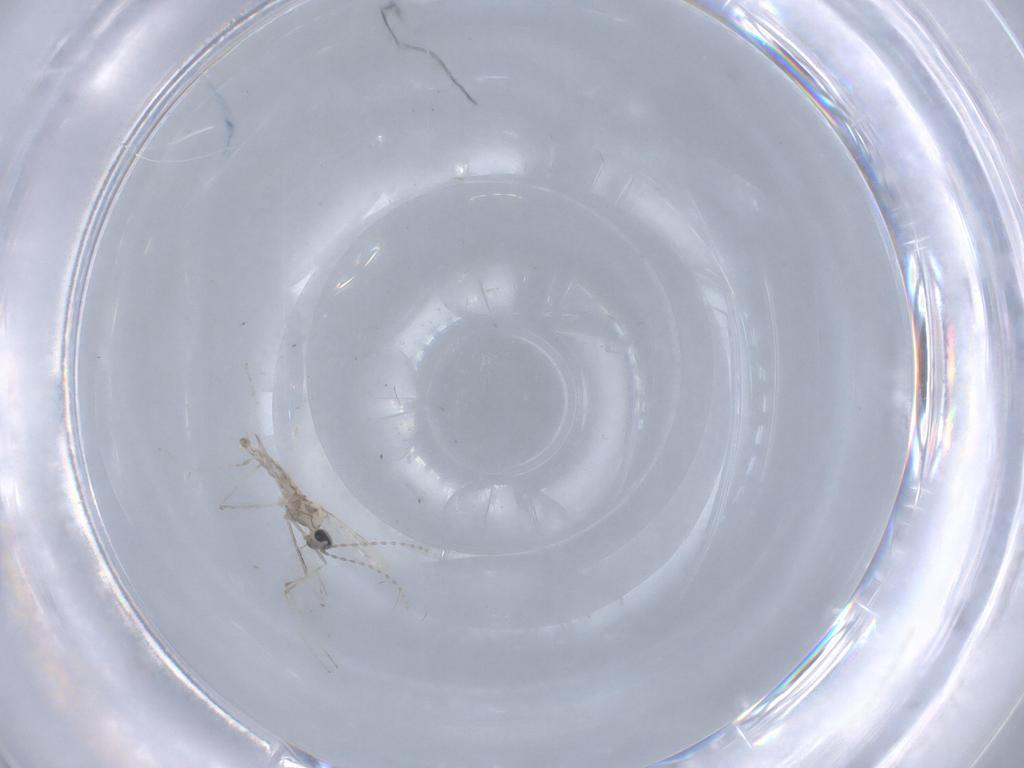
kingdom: Animalia
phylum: Arthropoda
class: Insecta
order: Diptera
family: Cecidomyiidae
